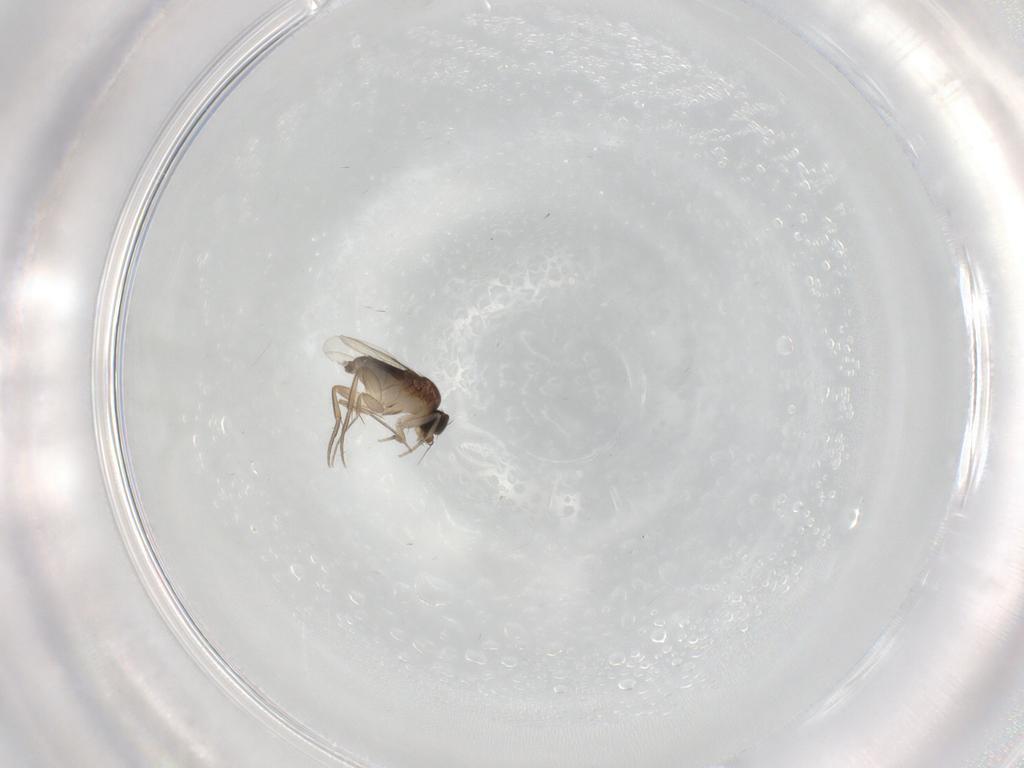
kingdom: Animalia
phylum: Arthropoda
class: Insecta
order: Diptera
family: Phoridae
